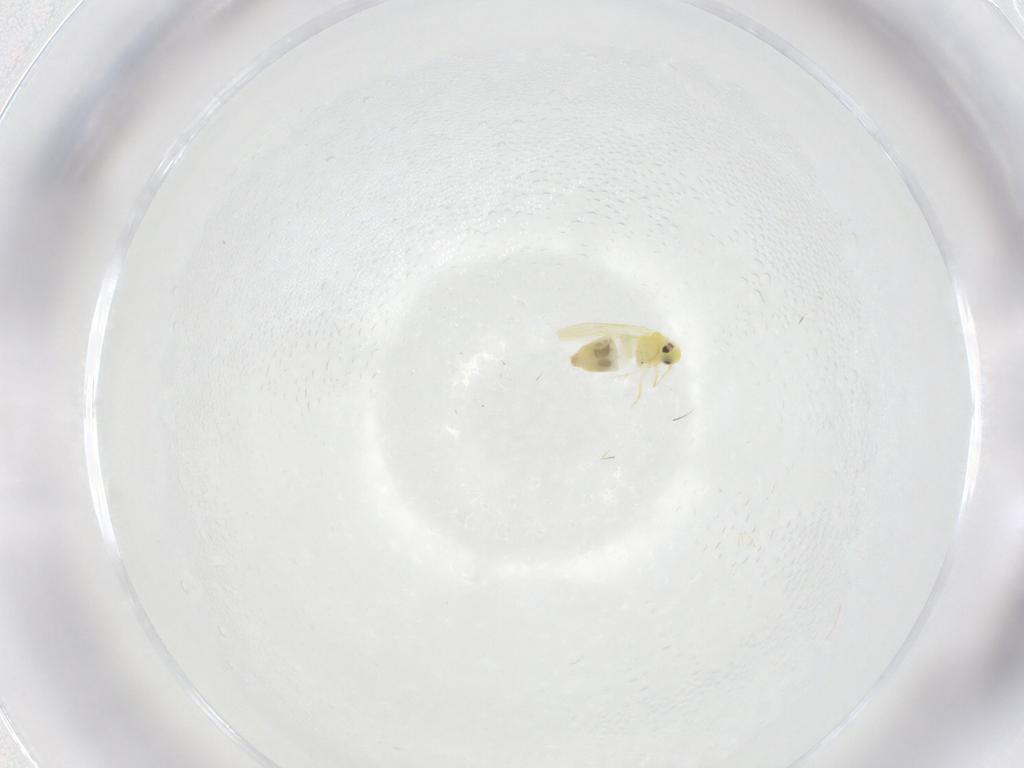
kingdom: Animalia
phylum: Arthropoda
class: Insecta
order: Hemiptera
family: Aleyrodidae
